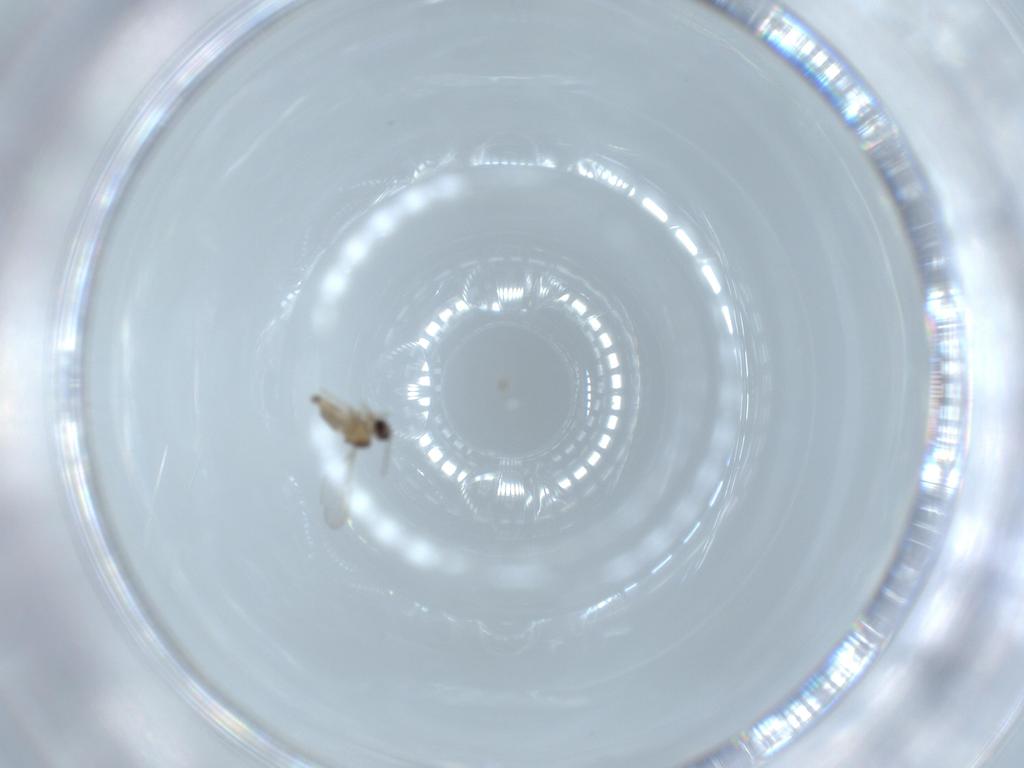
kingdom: Animalia
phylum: Arthropoda
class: Insecta
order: Diptera
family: Cecidomyiidae
